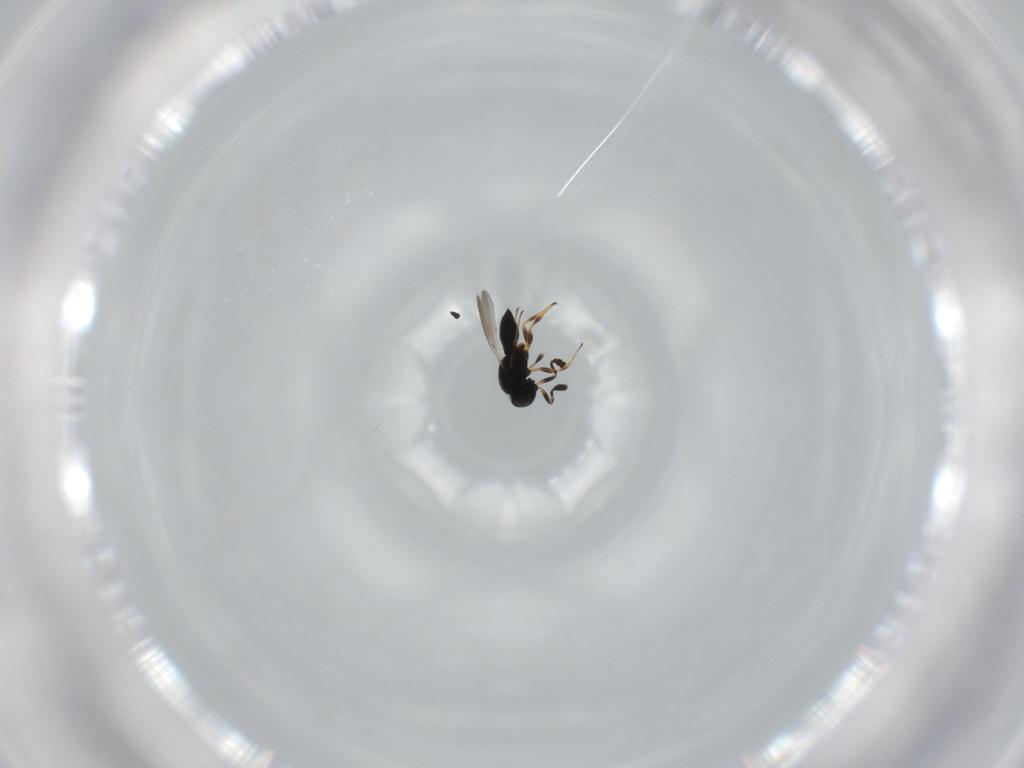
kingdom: Animalia
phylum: Arthropoda
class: Insecta
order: Hymenoptera
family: Scelionidae
